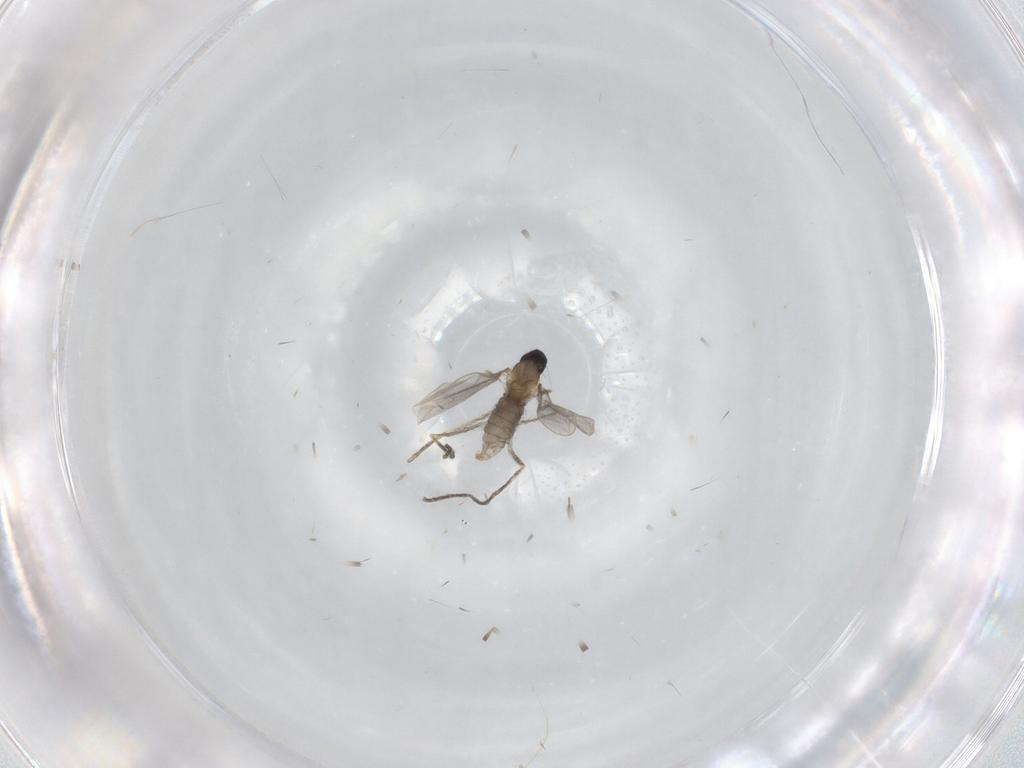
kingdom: Animalia
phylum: Arthropoda
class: Insecta
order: Diptera
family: Cecidomyiidae
